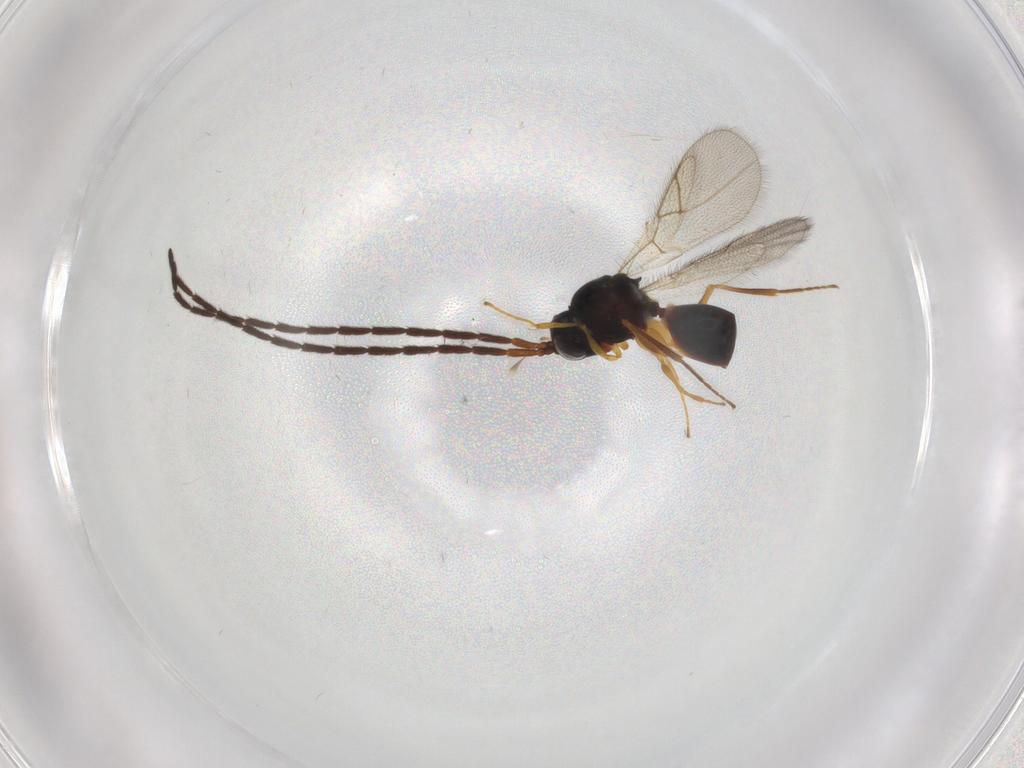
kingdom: Animalia
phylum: Arthropoda
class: Insecta
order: Hymenoptera
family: Figitidae
